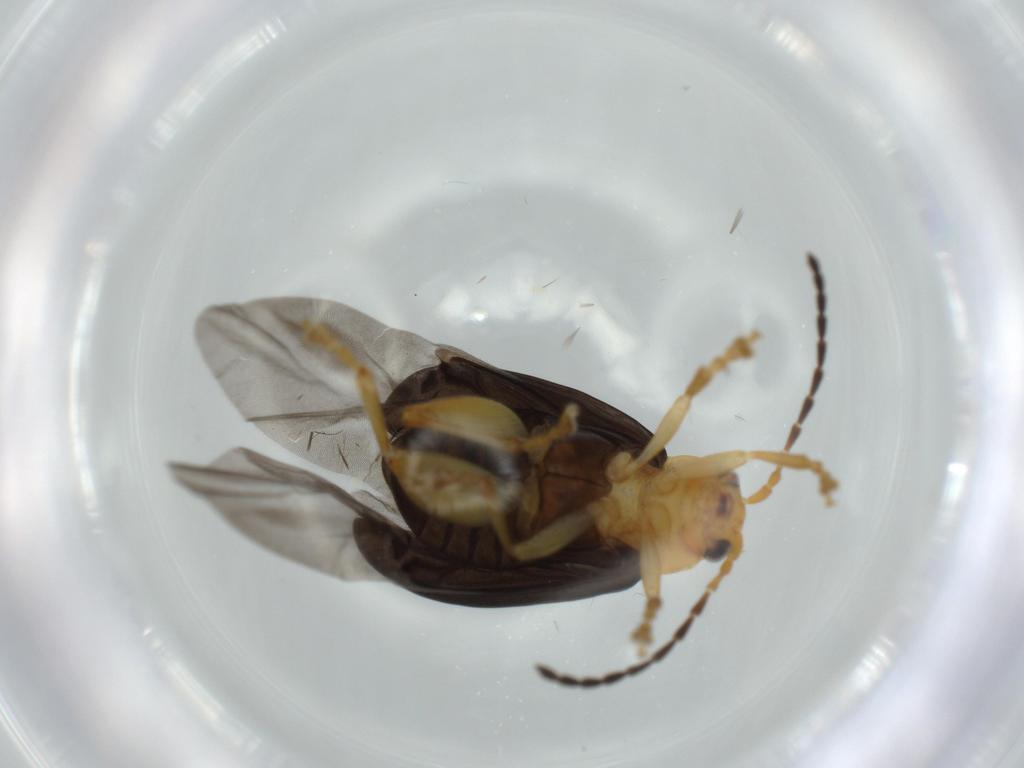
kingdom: Animalia
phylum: Arthropoda
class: Insecta
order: Coleoptera
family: Chrysomelidae
